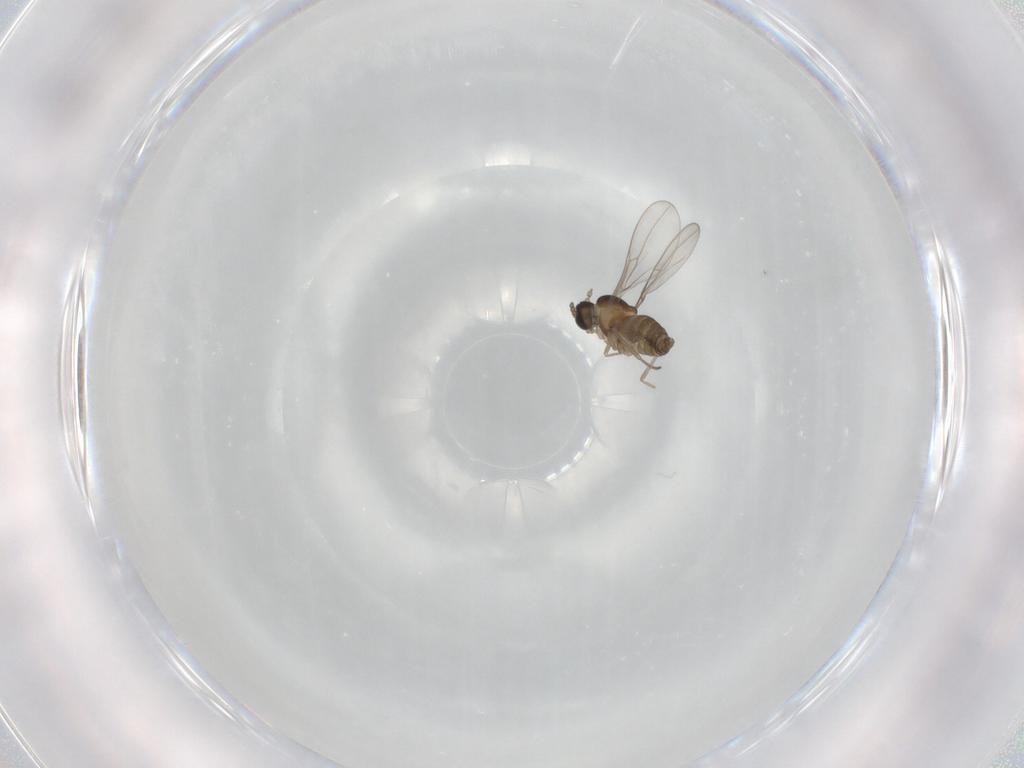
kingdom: Animalia
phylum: Arthropoda
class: Insecta
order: Diptera
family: Cecidomyiidae
